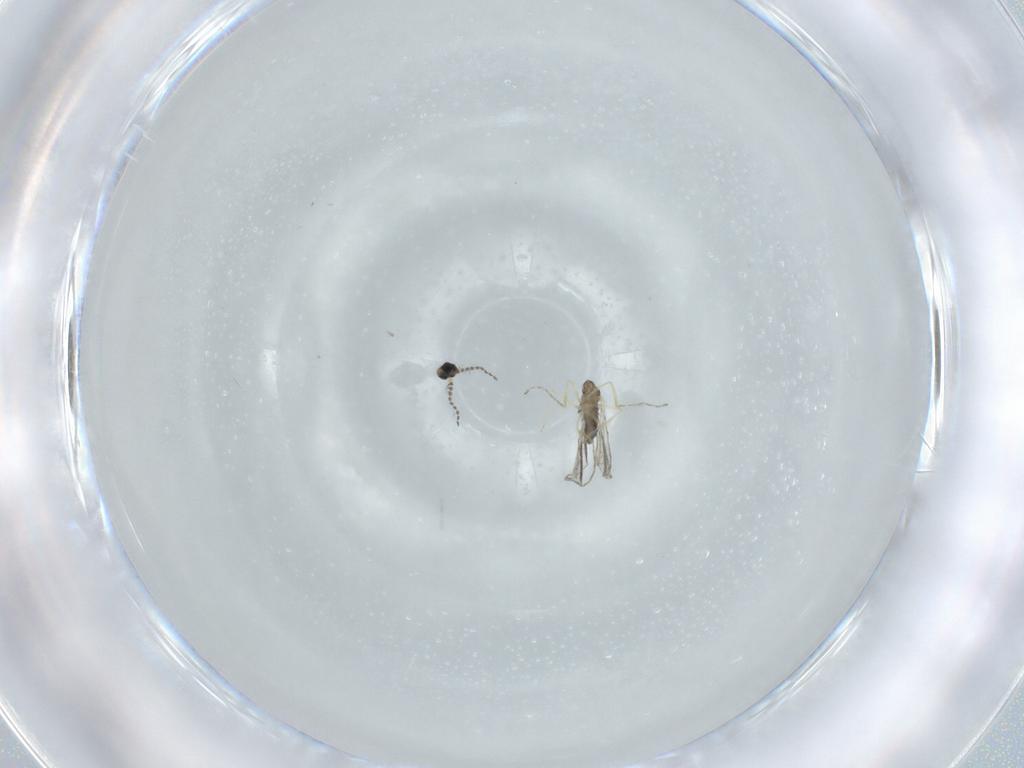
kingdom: Animalia
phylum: Arthropoda
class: Insecta
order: Diptera
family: Cecidomyiidae
